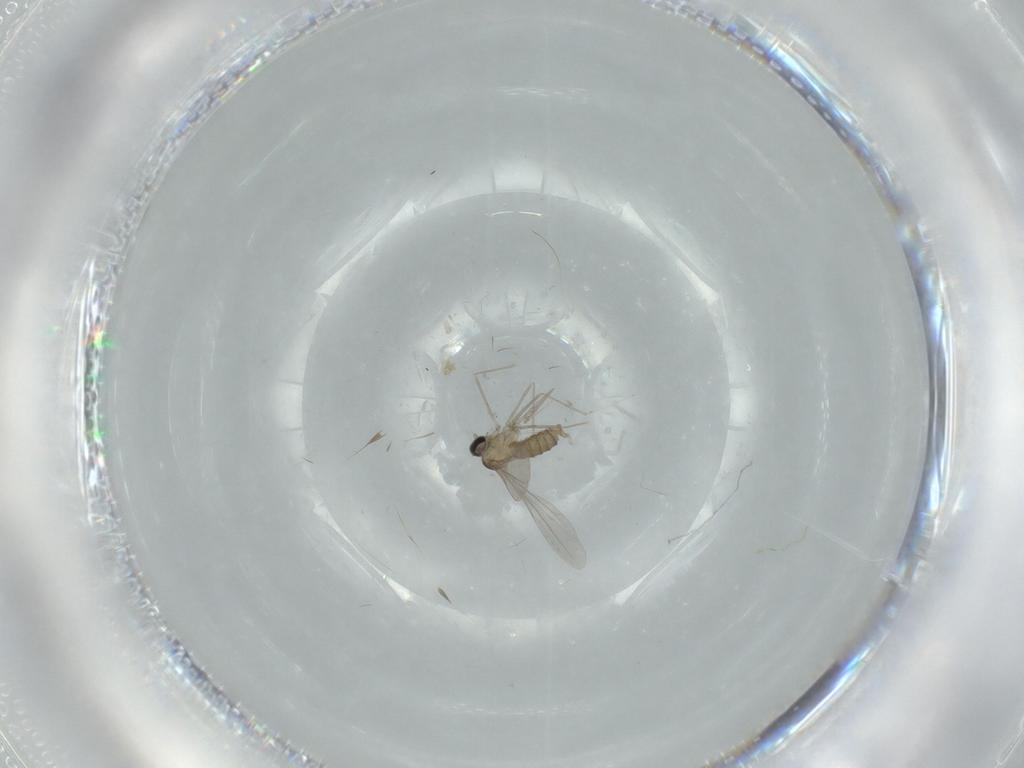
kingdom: Animalia
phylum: Arthropoda
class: Insecta
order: Diptera
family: Cecidomyiidae
